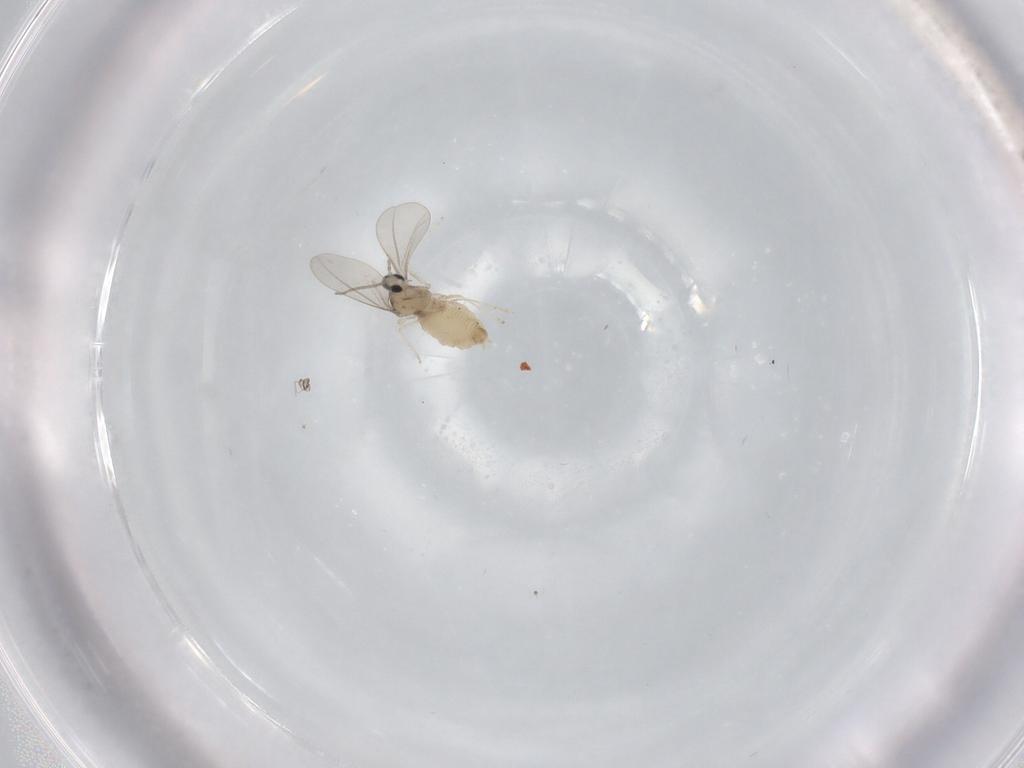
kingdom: Animalia
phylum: Arthropoda
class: Insecta
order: Diptera
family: Cecidomyiidae
